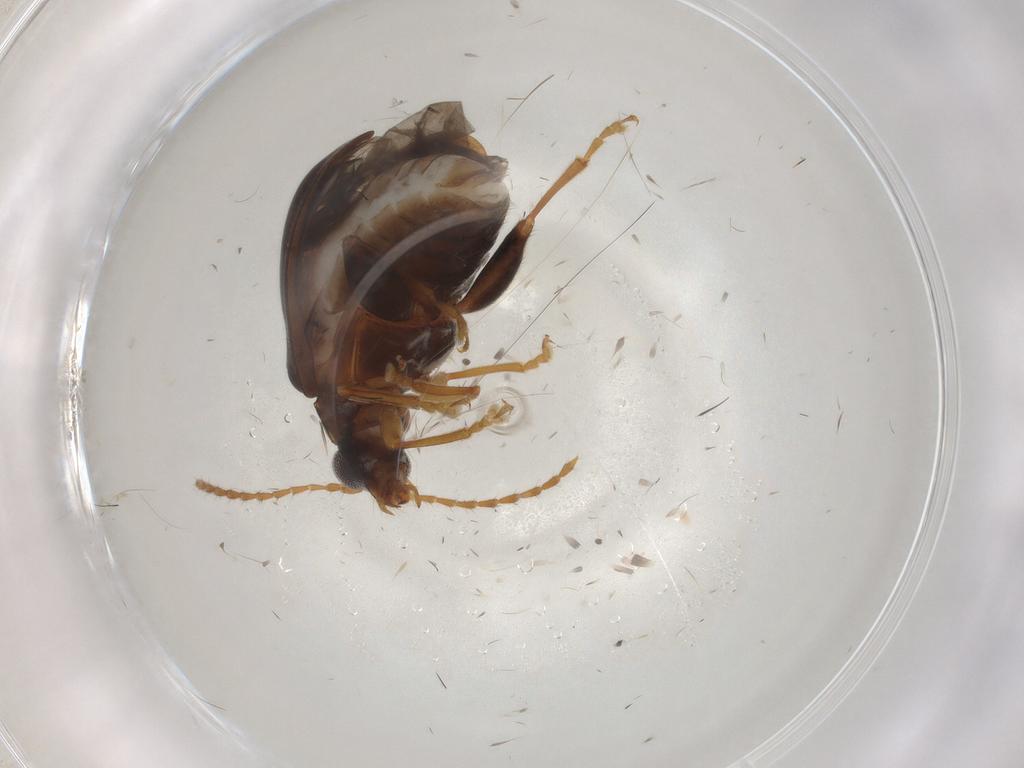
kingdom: Animalia
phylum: Arthropoda
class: Insecta
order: Coleoptera
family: Chrysomelidae
